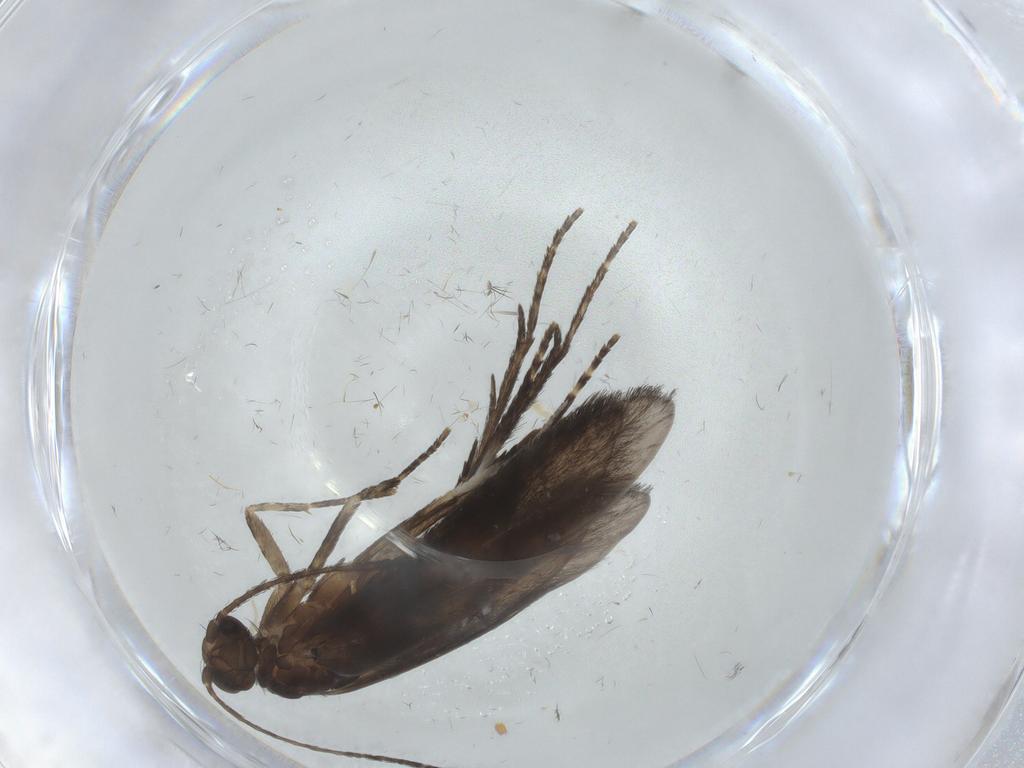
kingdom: Animalia
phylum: Arthropoda
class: Insecta
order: Trichoptera
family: Xiphocentronidae
